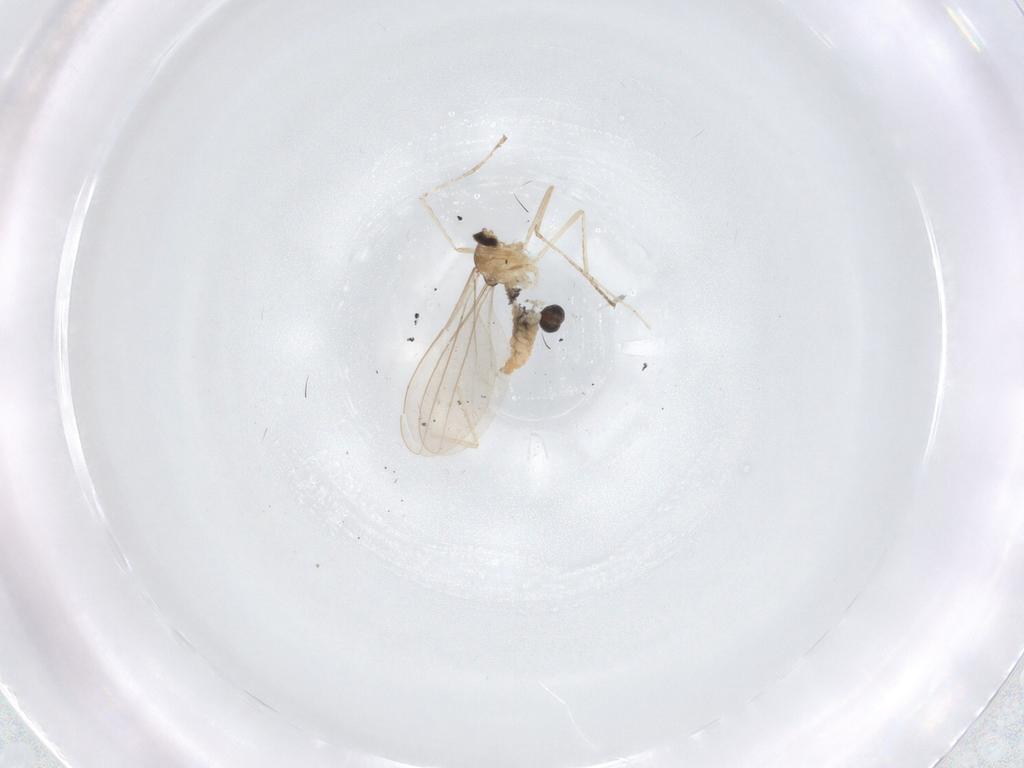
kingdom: Animalia
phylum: Arthropoda
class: Insecta
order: Diptera
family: Cecidomyiidae
